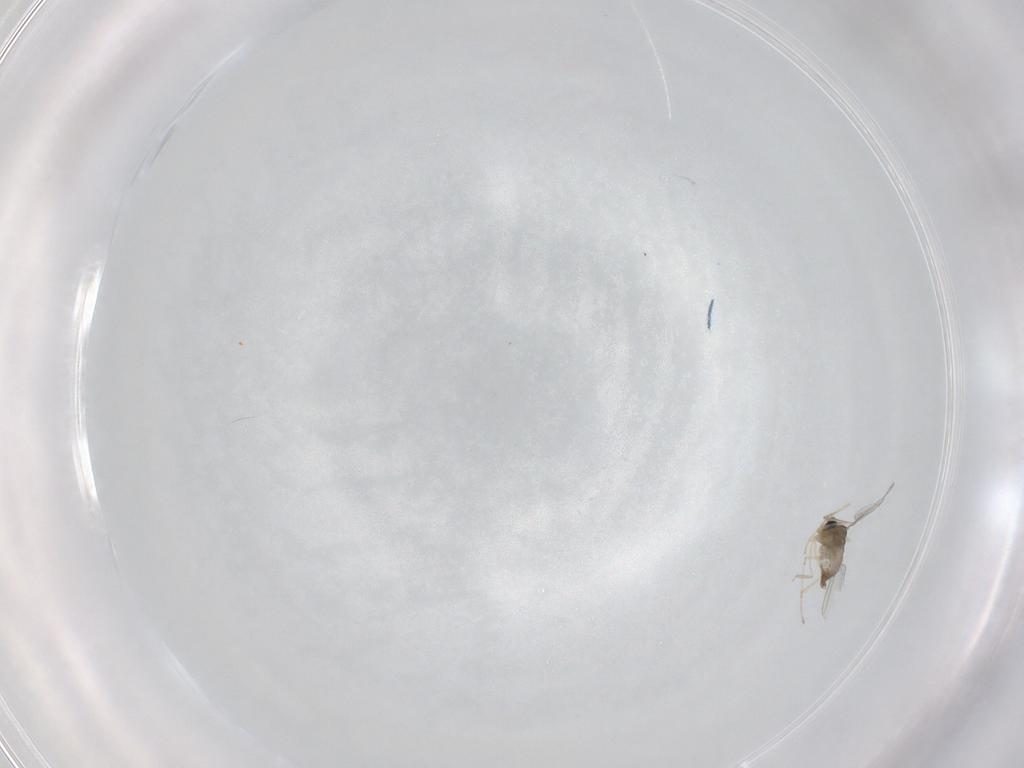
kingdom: Animalia
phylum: Arthropoda
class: Insecta
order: Diptera
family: Cecidomyiidae
